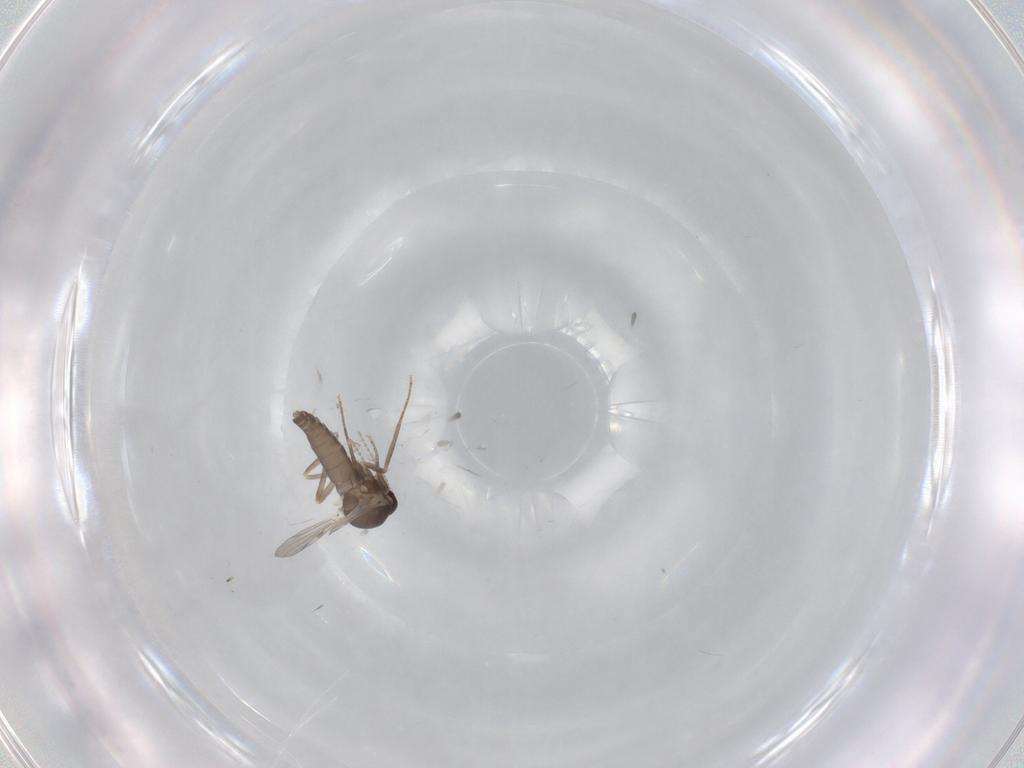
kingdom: Animalia
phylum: Arthropoda
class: Insecta
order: Diptera
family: Ceratopogonidae
